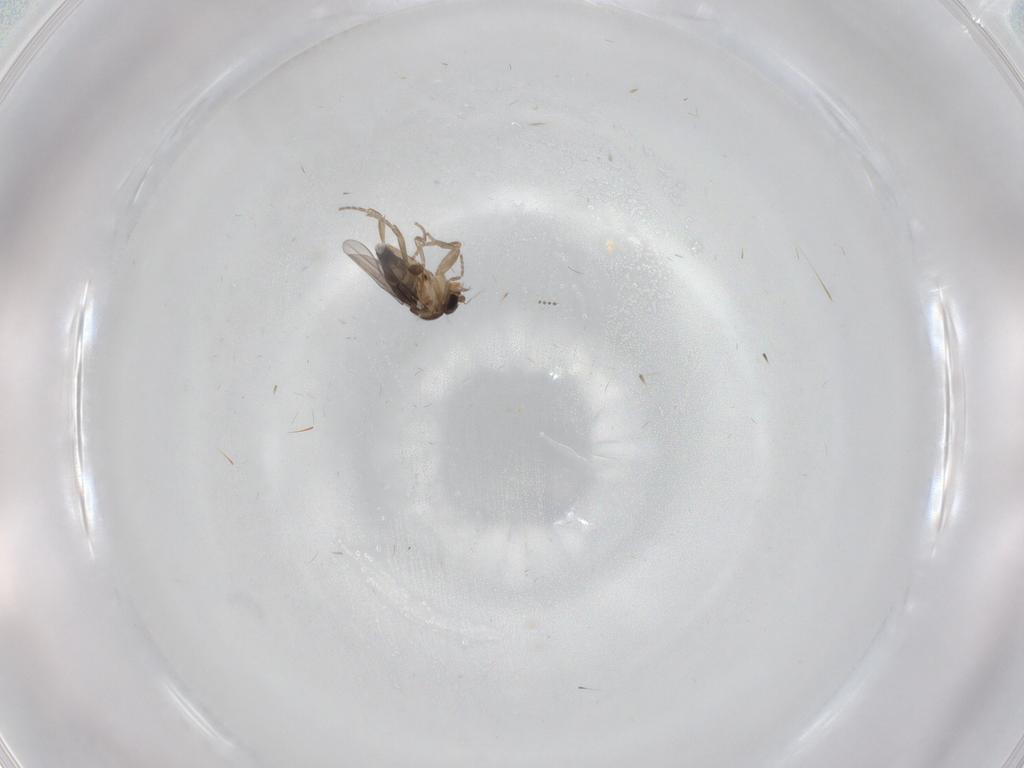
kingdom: Animalia
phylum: Arthropoda
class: Insecta
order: Diptera
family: Phoridae
